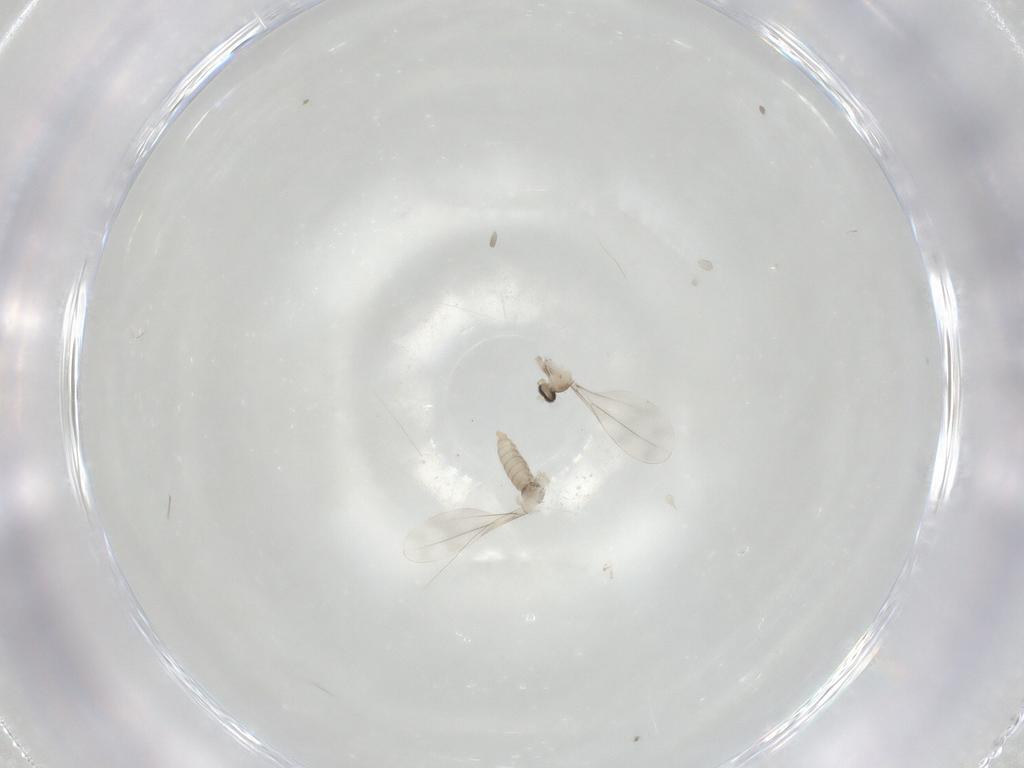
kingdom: Animalia
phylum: Arthropoda
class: Insecta
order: Diptera
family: Cecidomyiidae
